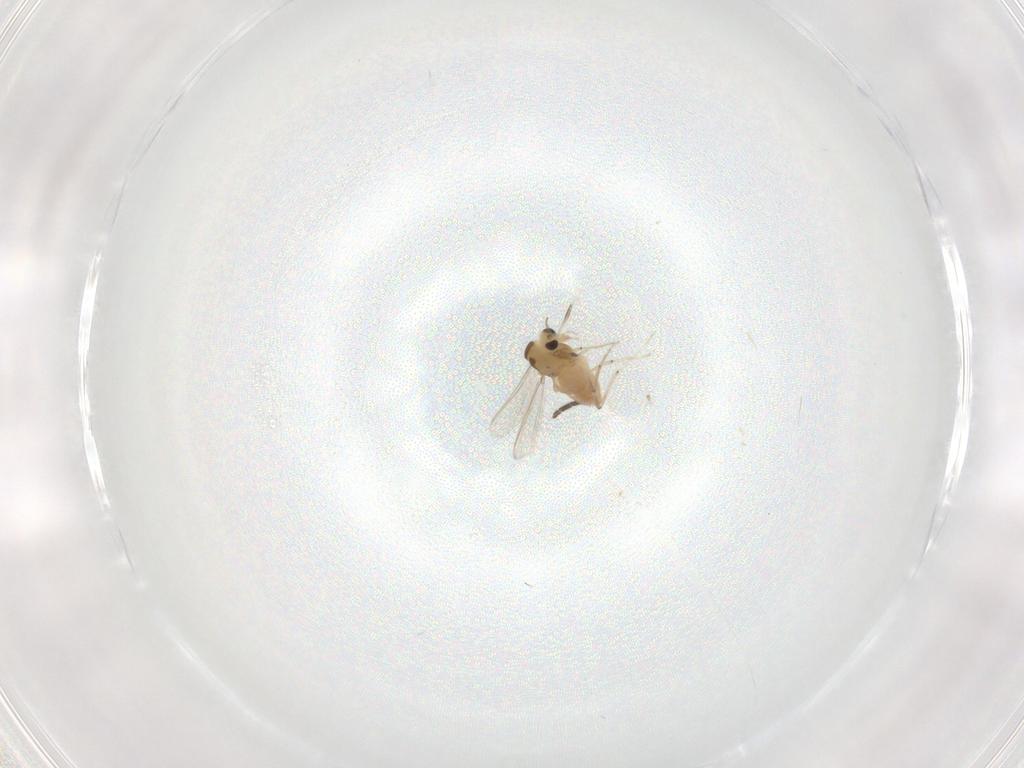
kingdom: Animalia
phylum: Arthropoda
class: Insecta
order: Diptera
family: Chironomidae
